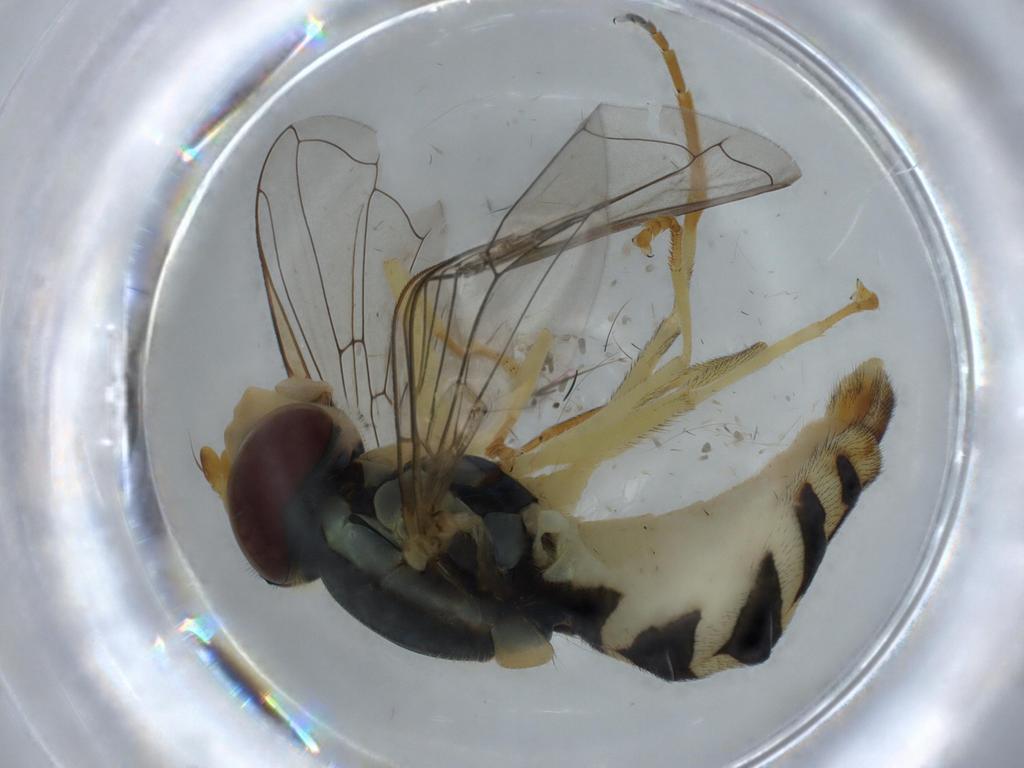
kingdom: Animalia
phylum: Arthropoda
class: Insecta
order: Diptera
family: Syrphidae
